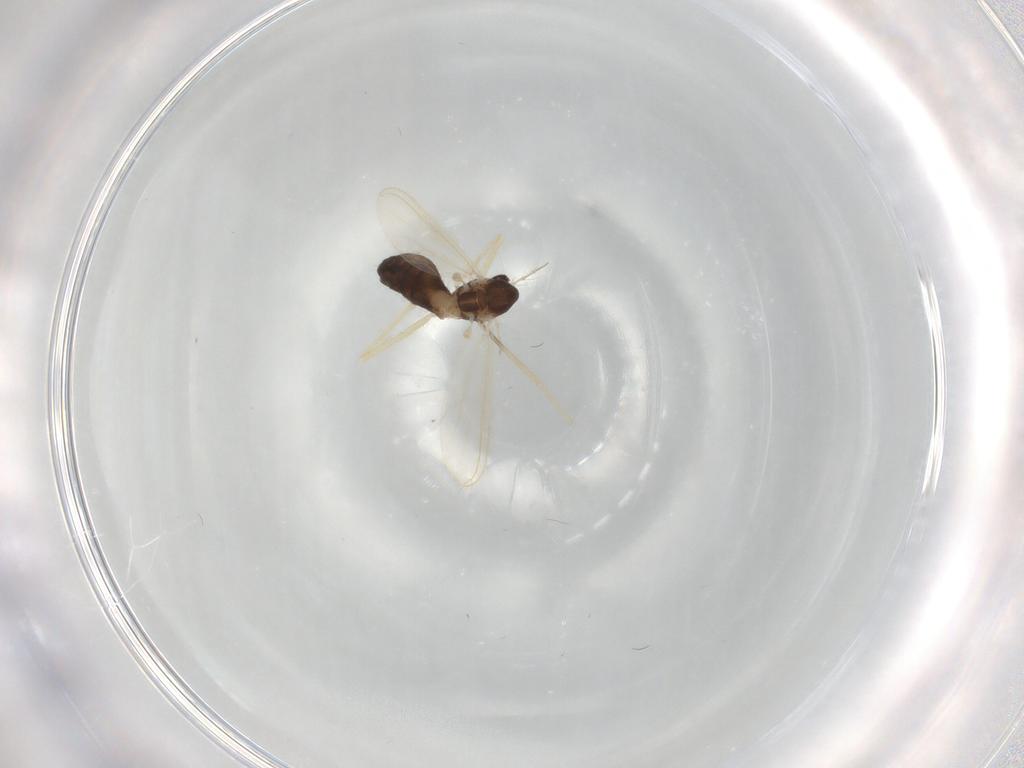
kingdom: Animalia
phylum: Arthropoda
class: Insecta
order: Diptera
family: Chironomidae
